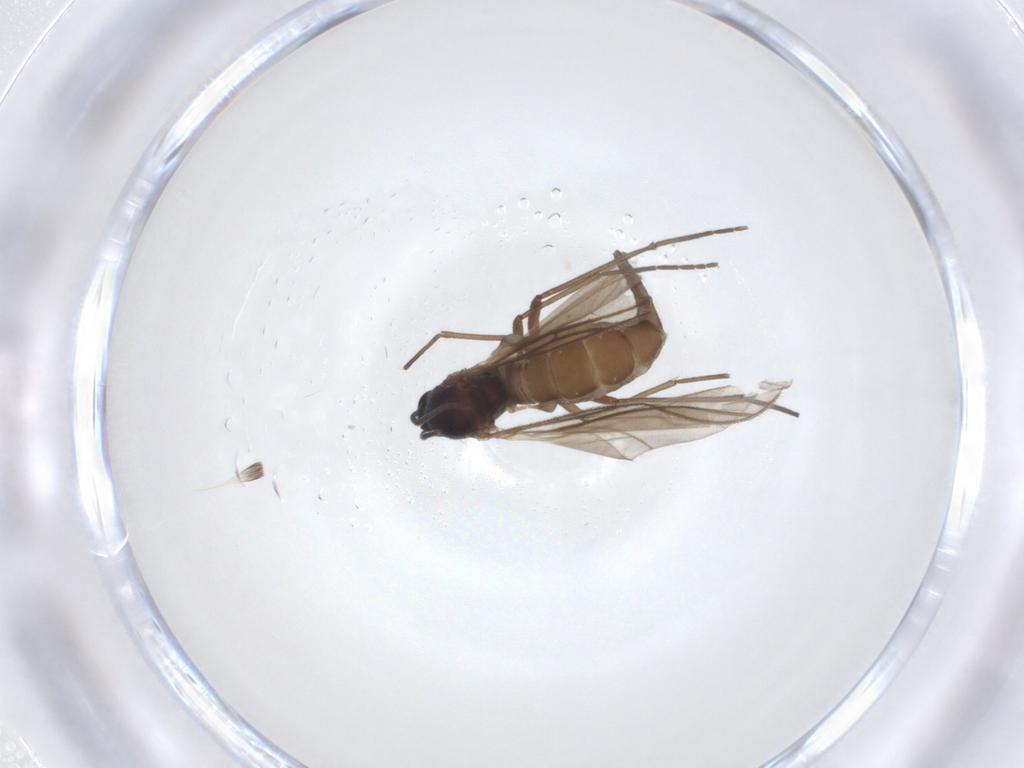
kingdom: Animalia
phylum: Arthropoda
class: Insecta
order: Diptera
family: Sciaridae
